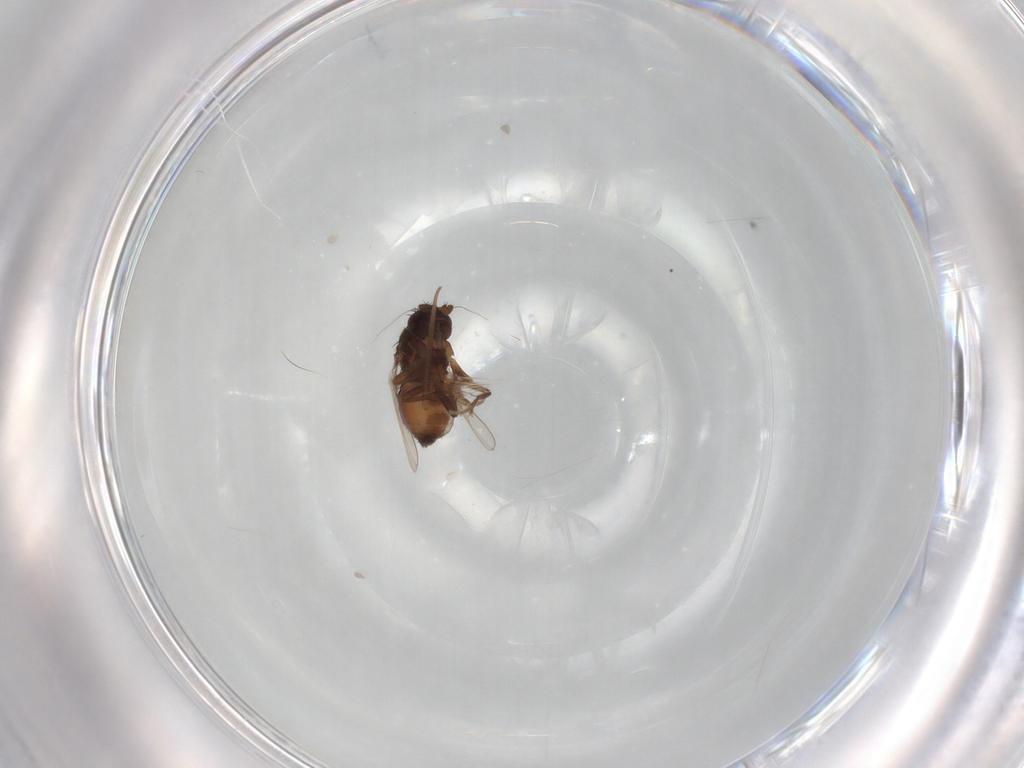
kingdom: Animalia
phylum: Arthropoda
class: Insecta
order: Diptera
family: Sphaeroceridae
